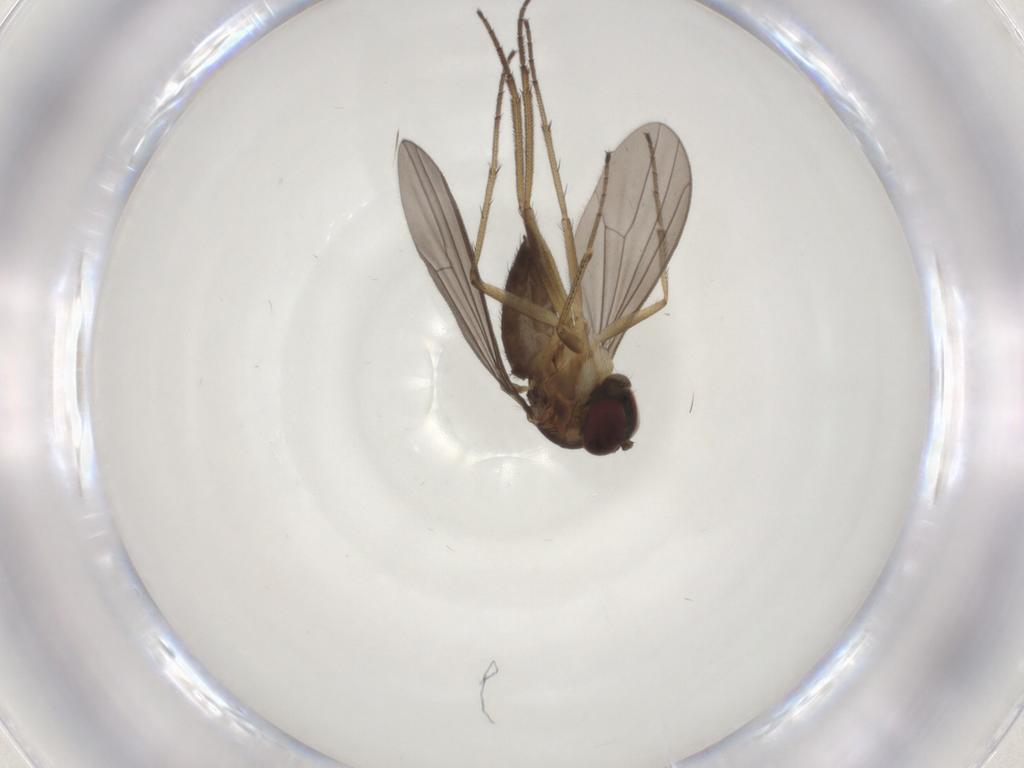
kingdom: Animalia
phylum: Arthropoda
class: Insecta
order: Diptera
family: Dolichopodidae
